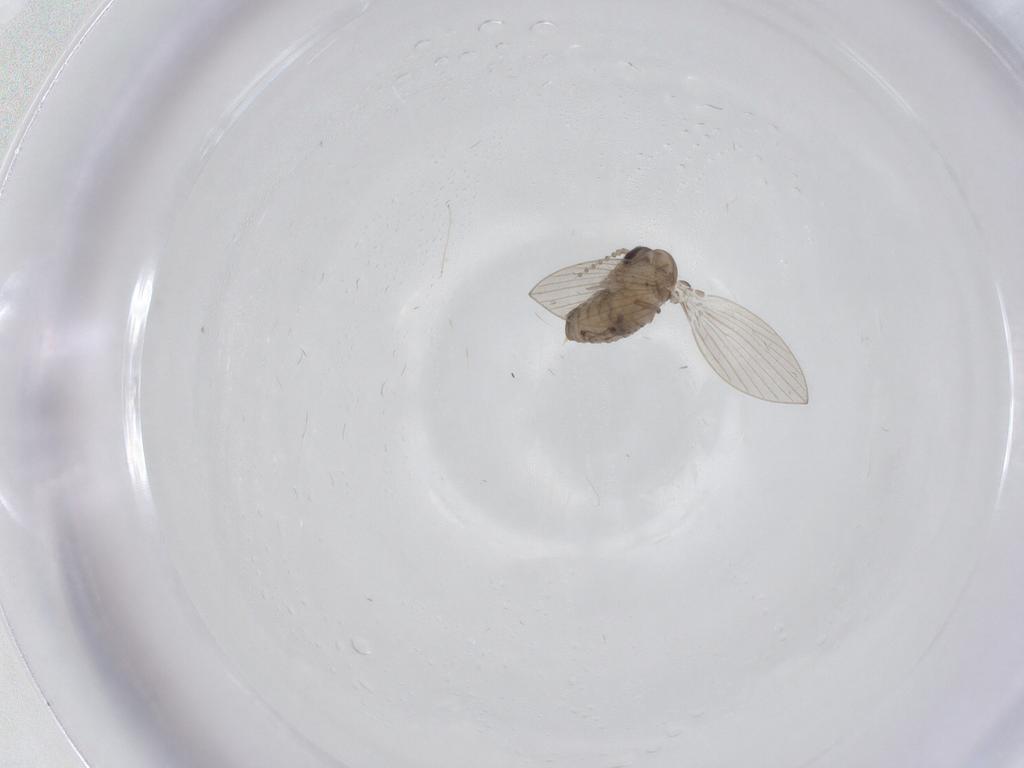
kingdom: Animalia
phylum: Arthropoda
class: Insecta
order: Diptera
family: Psychodidae
